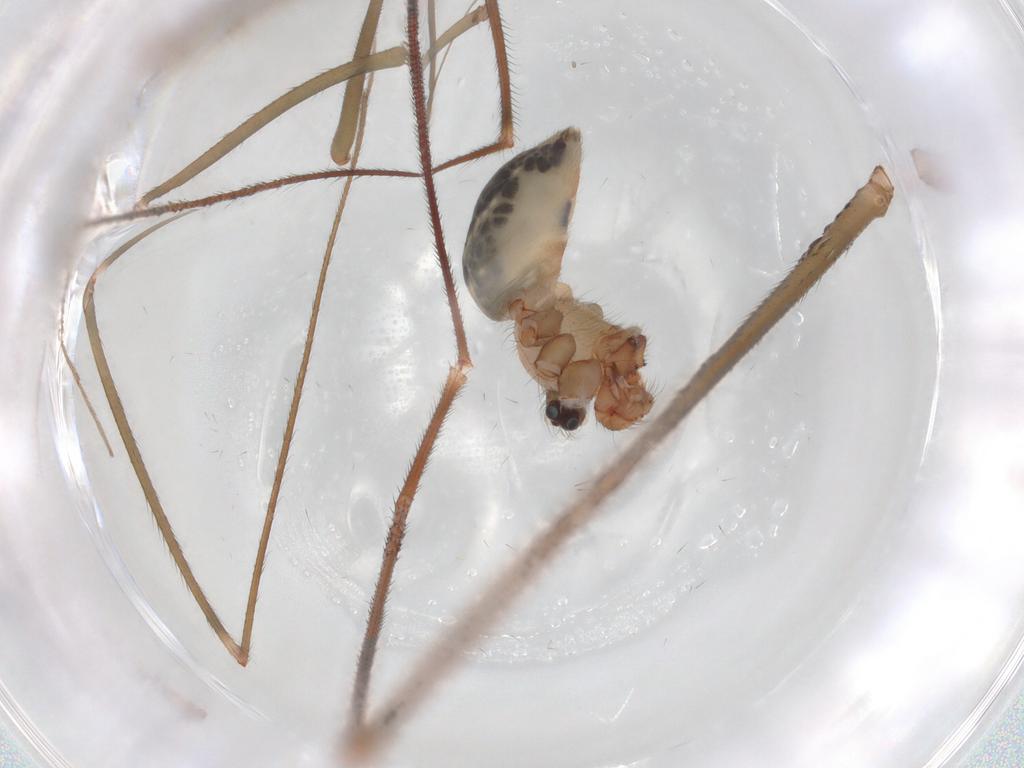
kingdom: Animalia
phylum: Arthropoda
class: Arachnida
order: Araneae
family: Pholcidae
